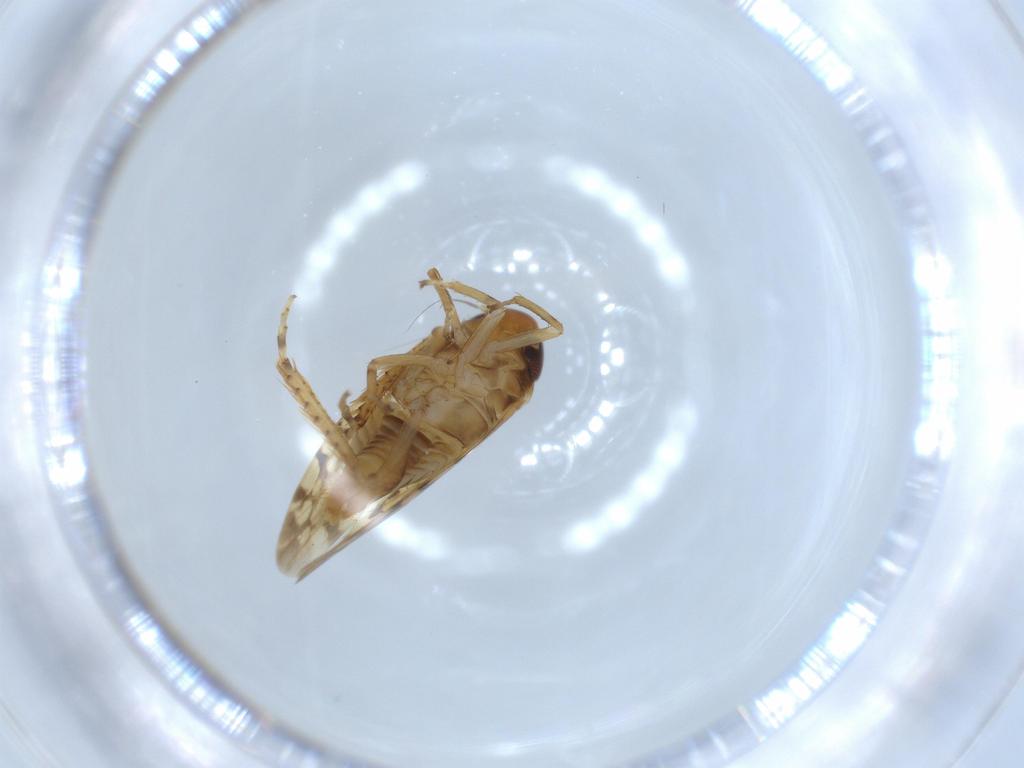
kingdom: Animalia
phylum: Arthropoda
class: Insecta
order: Hemiptera
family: Cicadellidae
